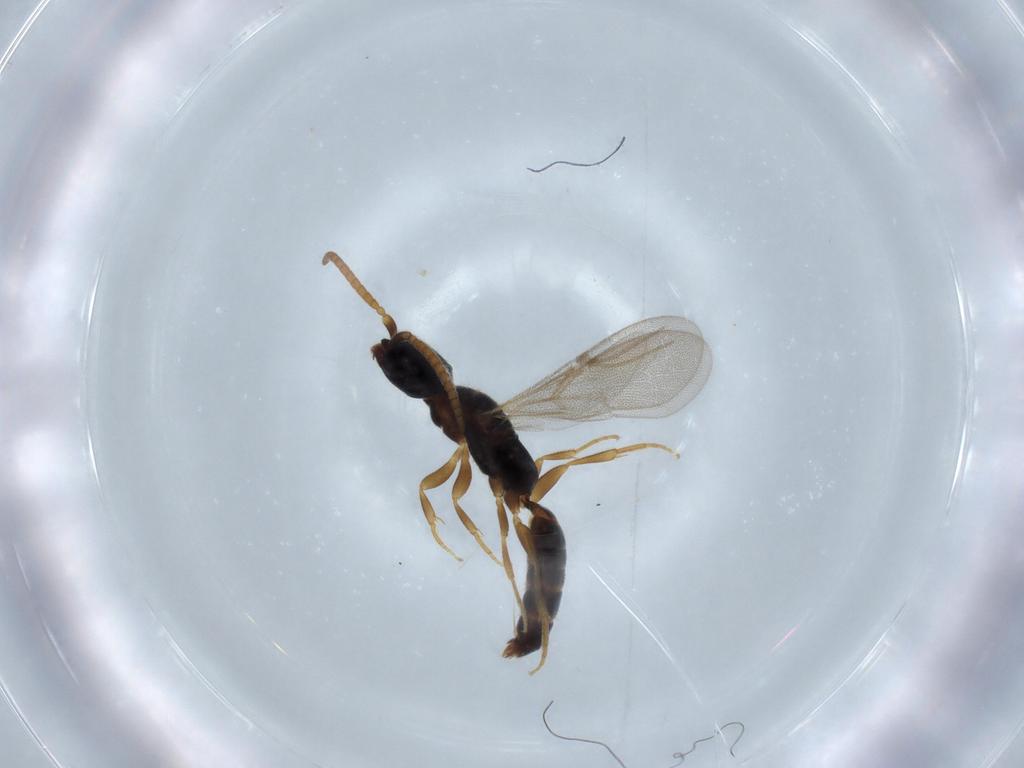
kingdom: Animalia
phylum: Arthropoda
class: Insecta
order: Hymenoptera
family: Bethylidae
